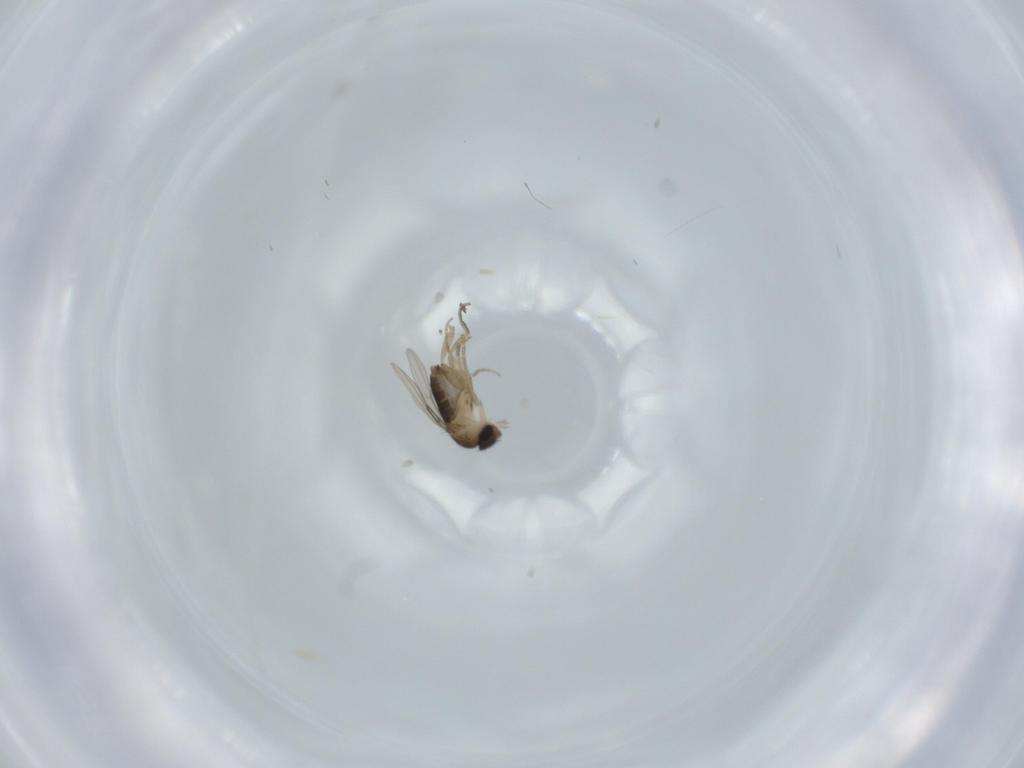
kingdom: Animalia
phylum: Arthropoda
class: Insecta
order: Diptera
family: Phoridae
